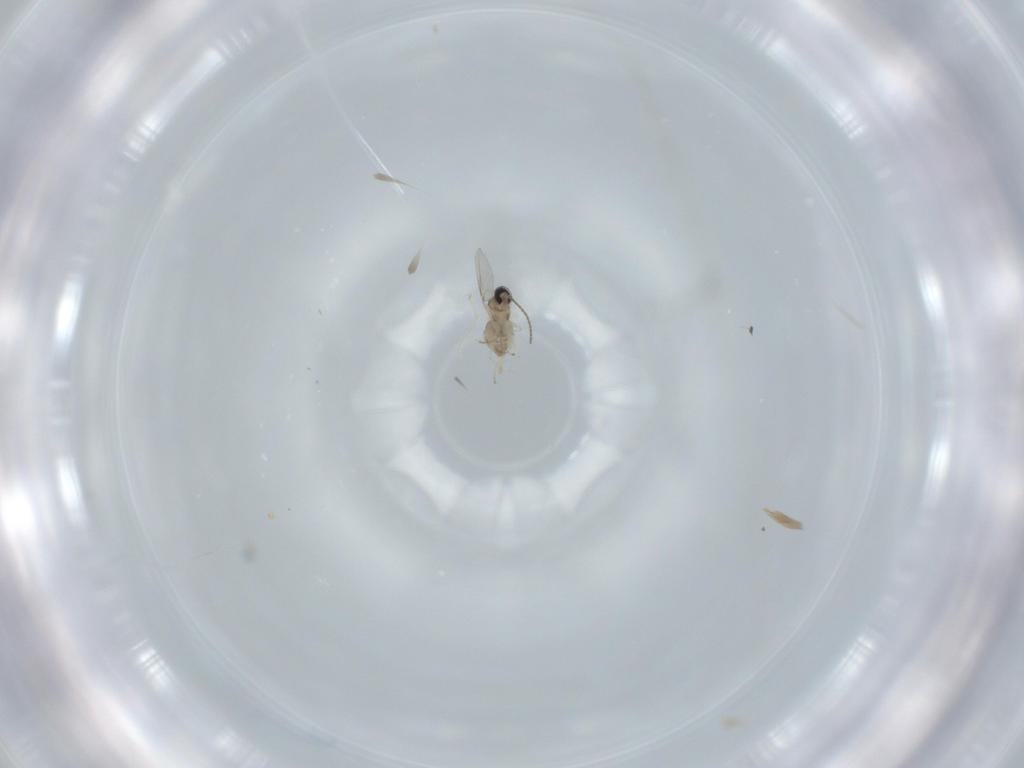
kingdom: Animalia
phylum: Arthropoda
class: Insecta
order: Diptera
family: Cecidomyiidae
